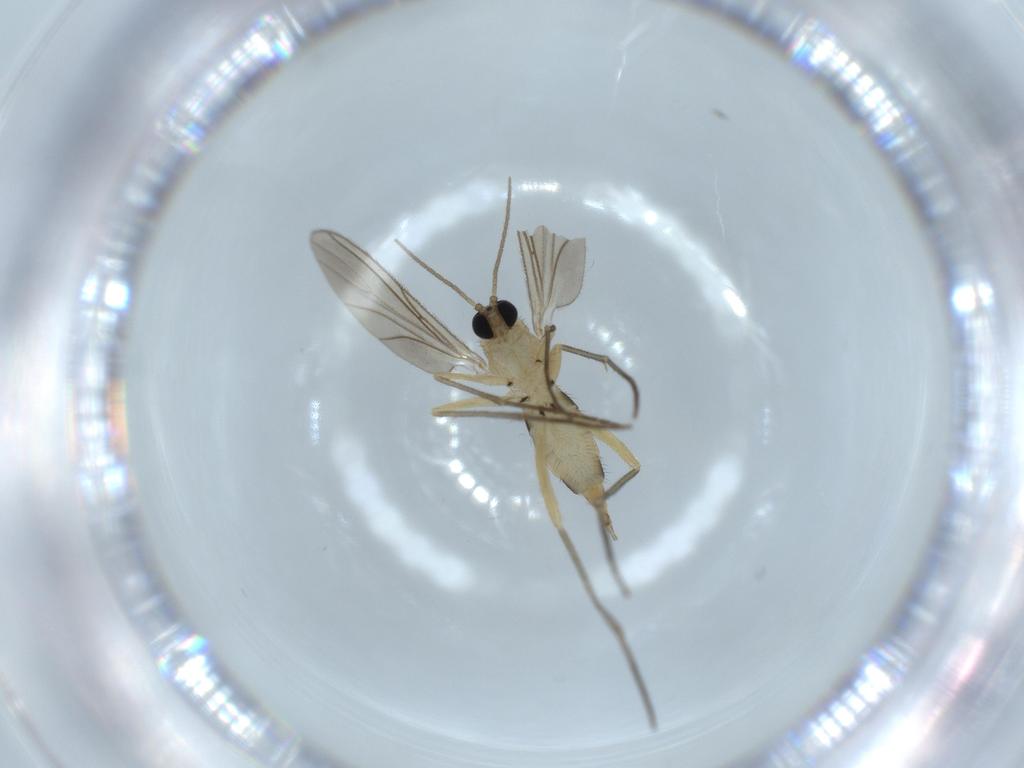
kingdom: Animalia
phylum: Arthropoda
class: Insecta
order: Diptera
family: Sciaridae
